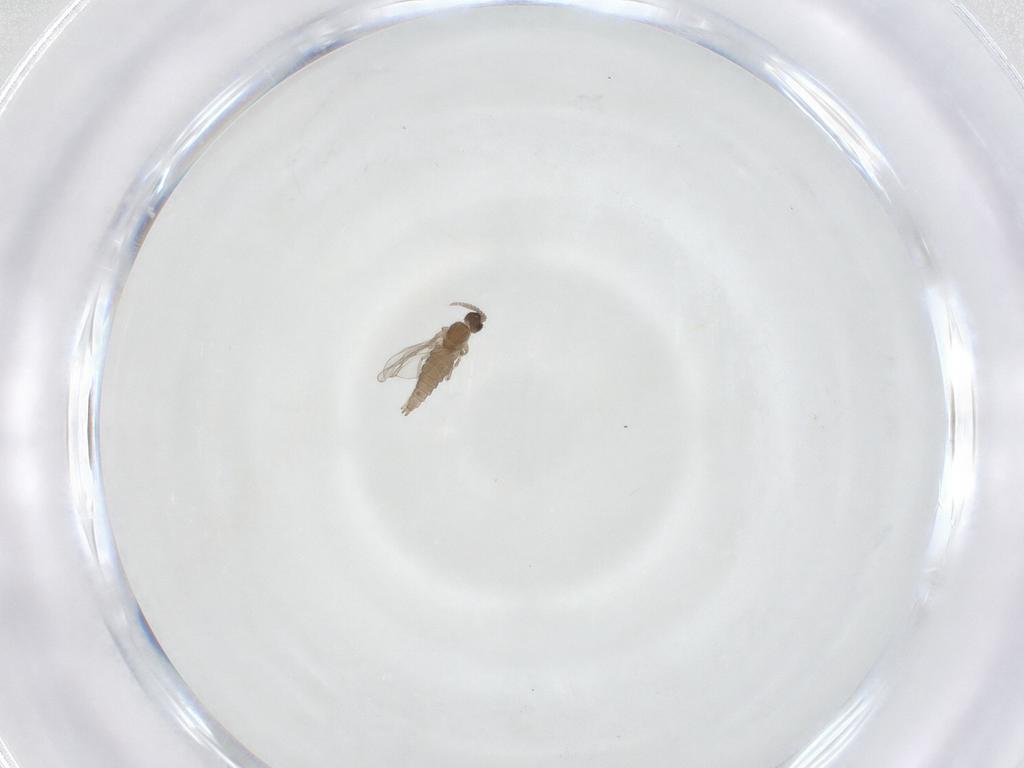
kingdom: Animalia
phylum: Arthropoda
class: Insecta
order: Diptera
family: Cecidomyiidae
